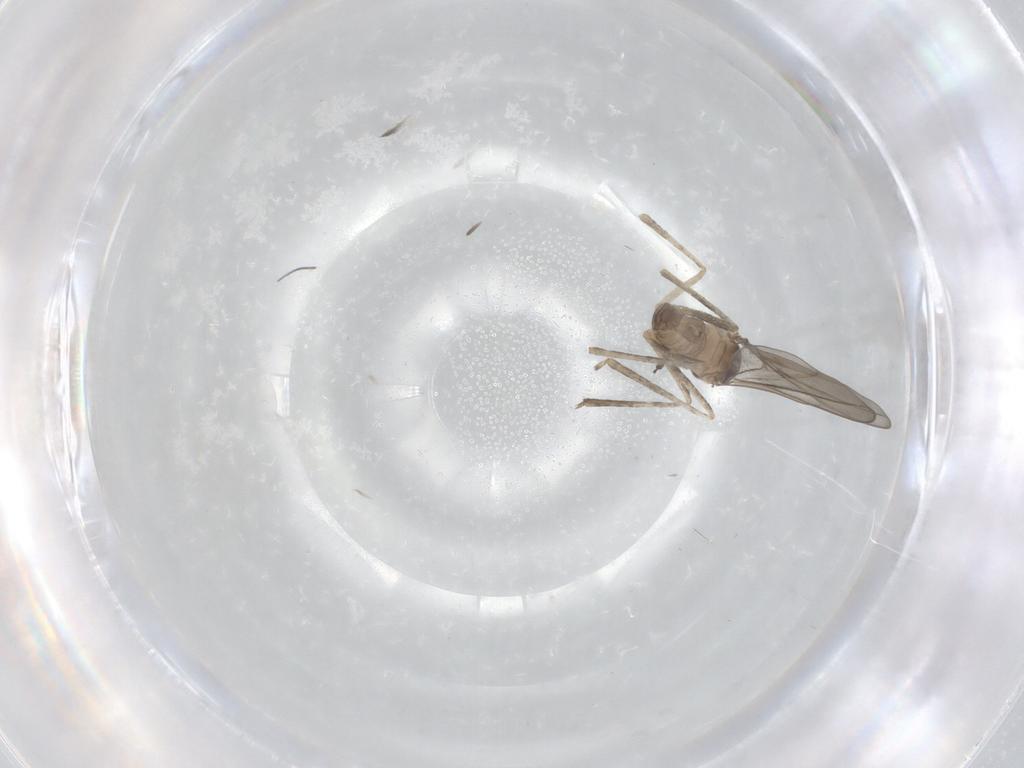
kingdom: Animalia
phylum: Arthropoda
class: Insecta
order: Diptera
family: Cecidomyiidae
